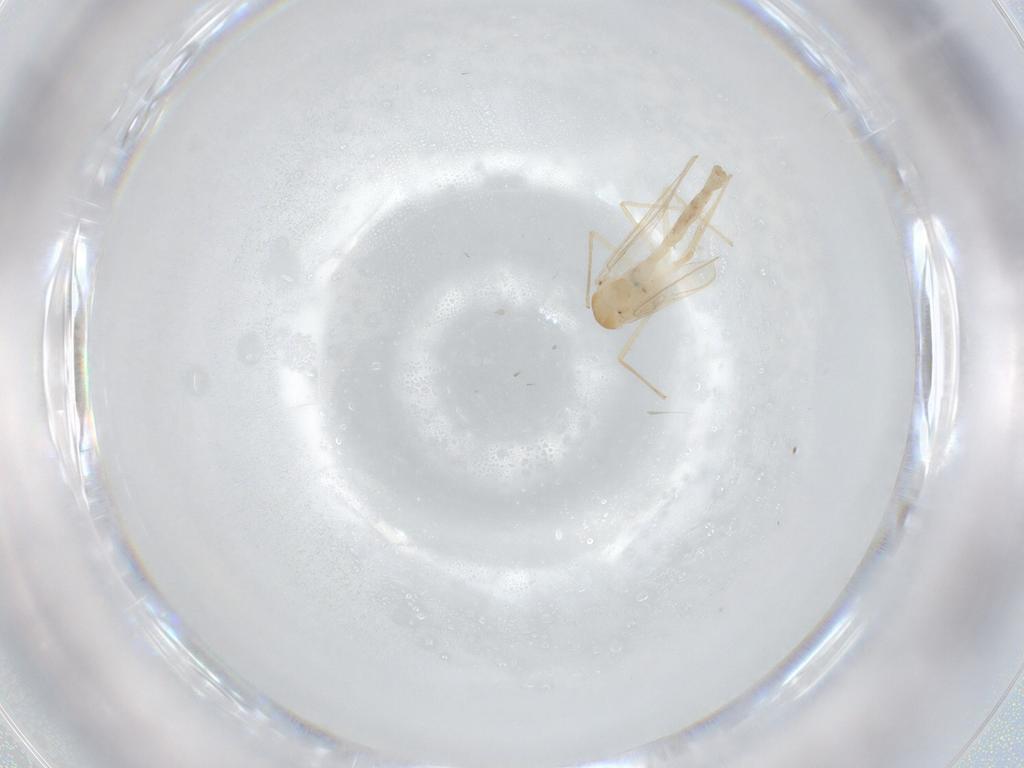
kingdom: Animalia
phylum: Arthropoda
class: Insecta
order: Diptera
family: Chironomidae
